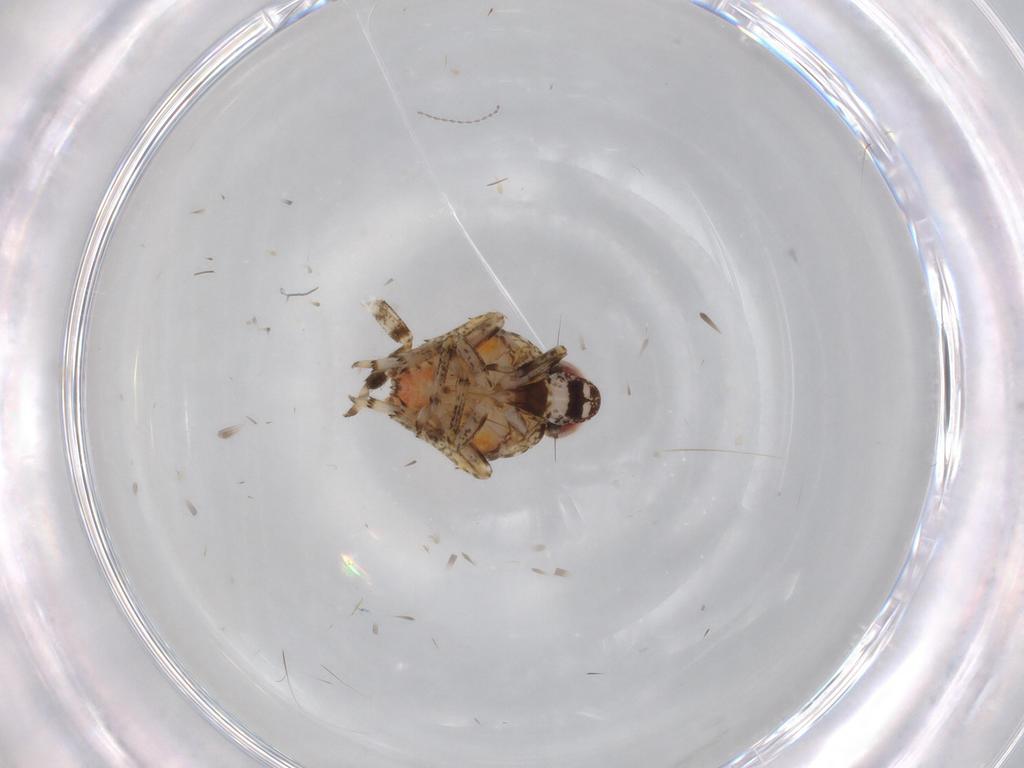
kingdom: Animalia
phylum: Arthropoda
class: Insecta
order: Hemiptera
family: Issidae
